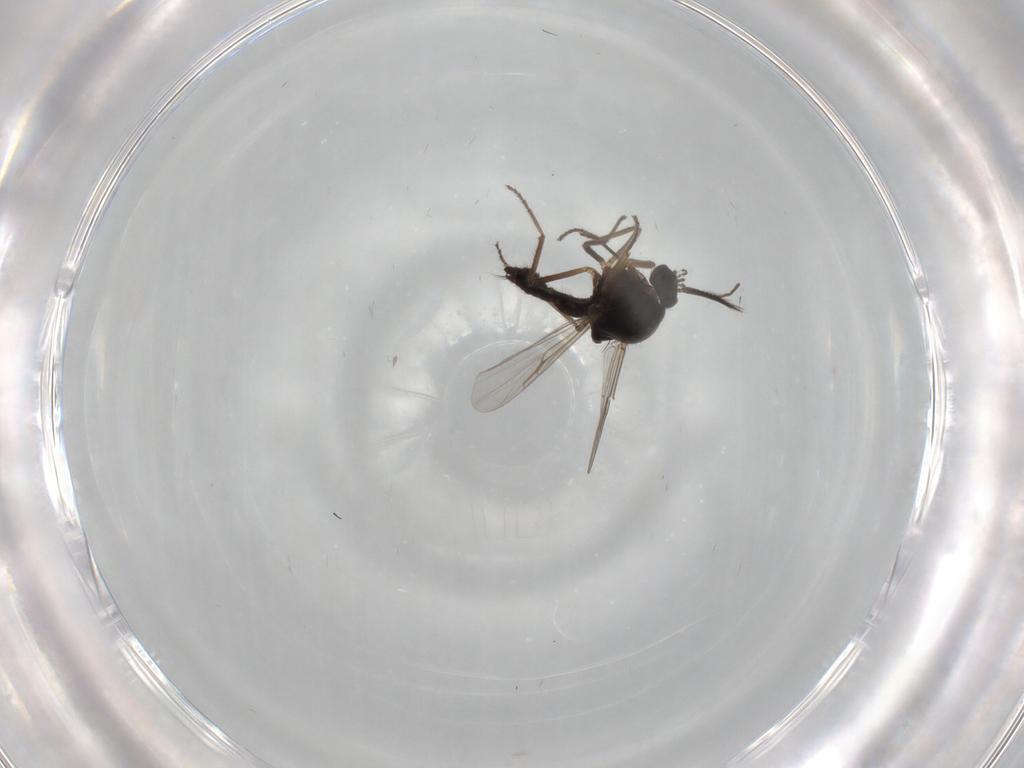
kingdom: Animalia
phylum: Arthropoda
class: Insecta
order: Diptera
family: Ceratopogonidae
